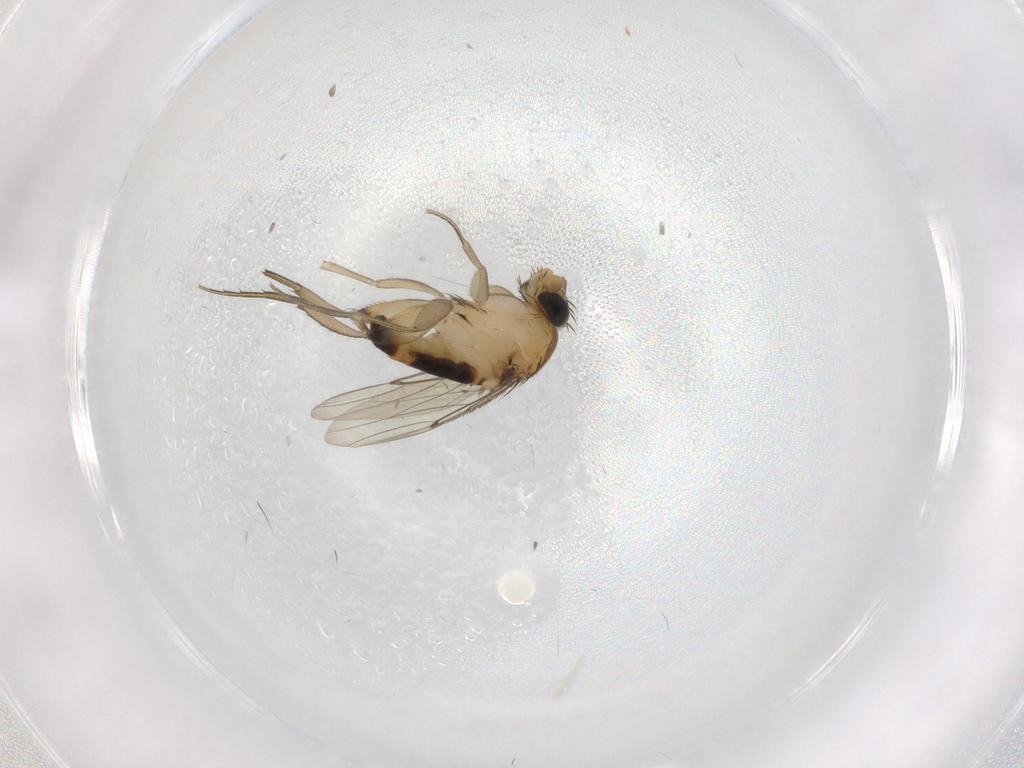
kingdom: Animalia
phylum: Arthropoda
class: Insecta
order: Diptera
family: Phoridae
